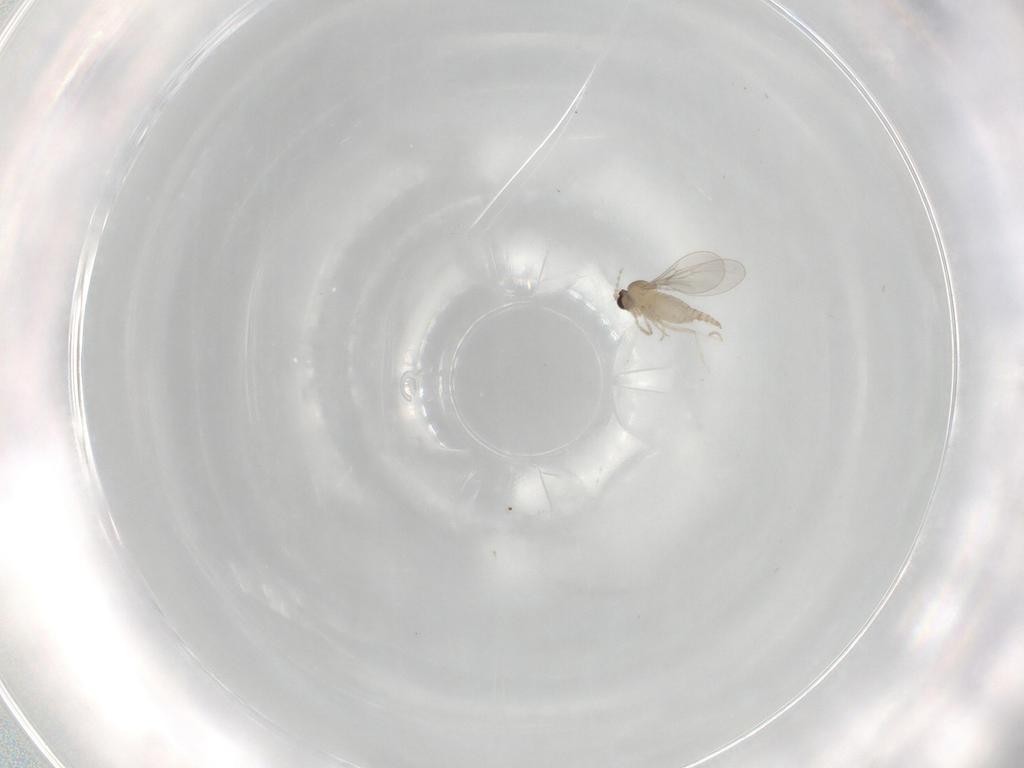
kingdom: Animalia
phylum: Arthropoda
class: Insecta
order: Diptera
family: Cecidomyiidae
